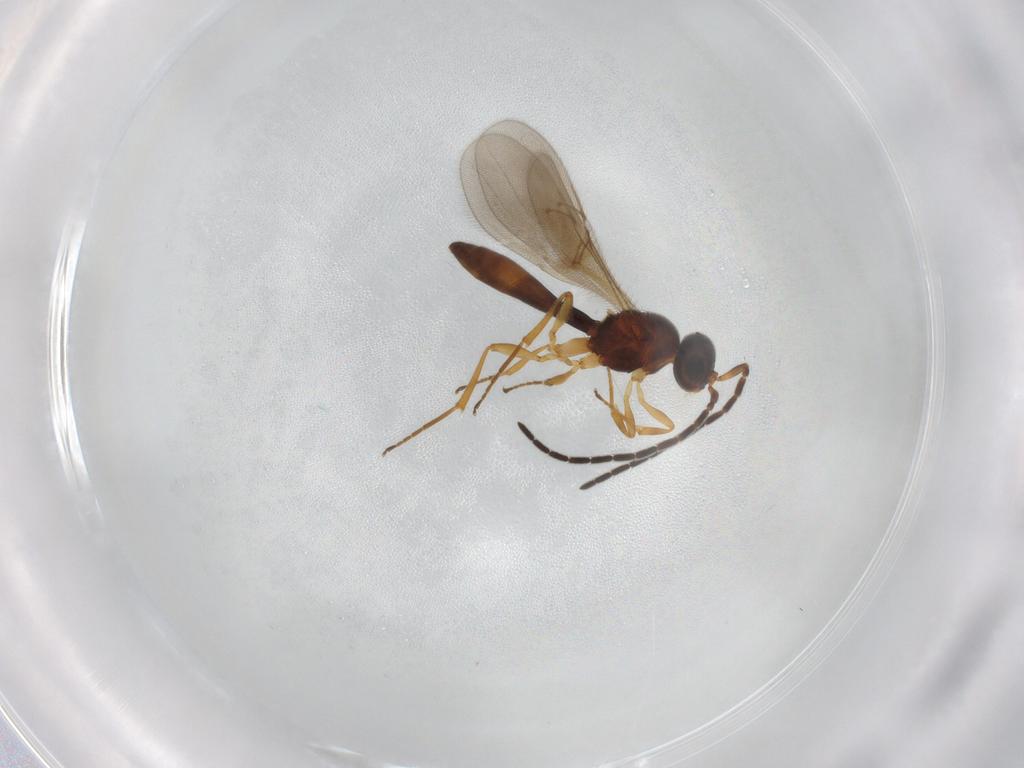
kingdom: Animalia
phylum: Arthropoda
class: Insecta
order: Hymenoptera
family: Scelionidae
